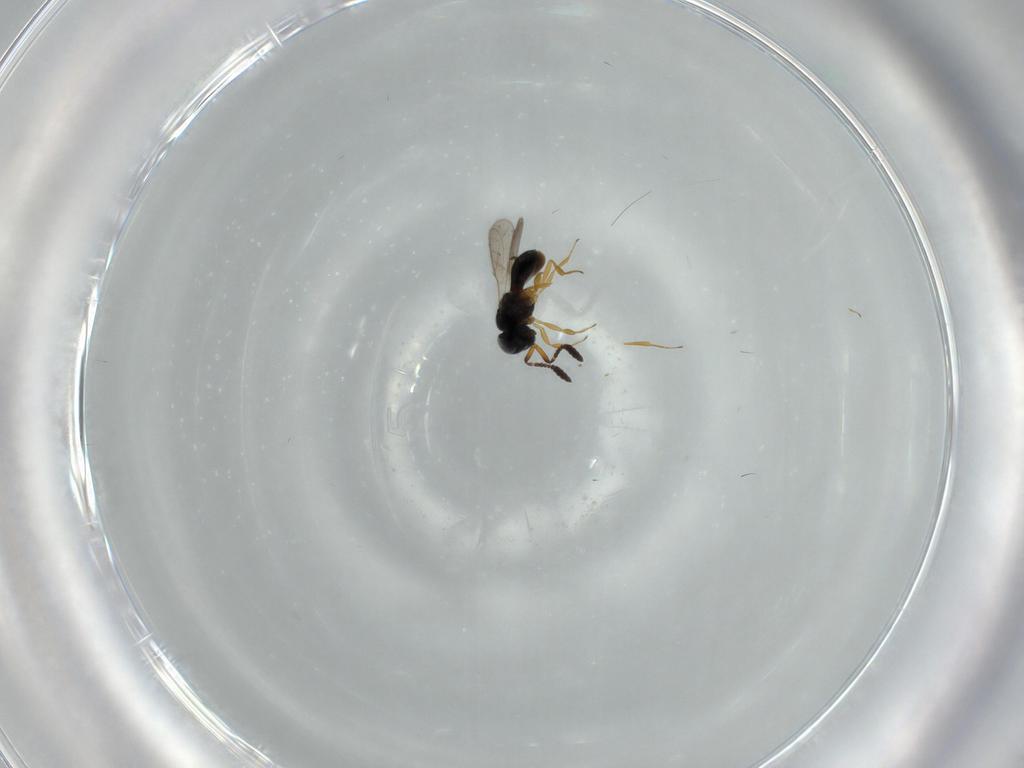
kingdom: Animalia
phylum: Arthropoda
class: Insecta
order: Hymenoptera
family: Scelionidae
